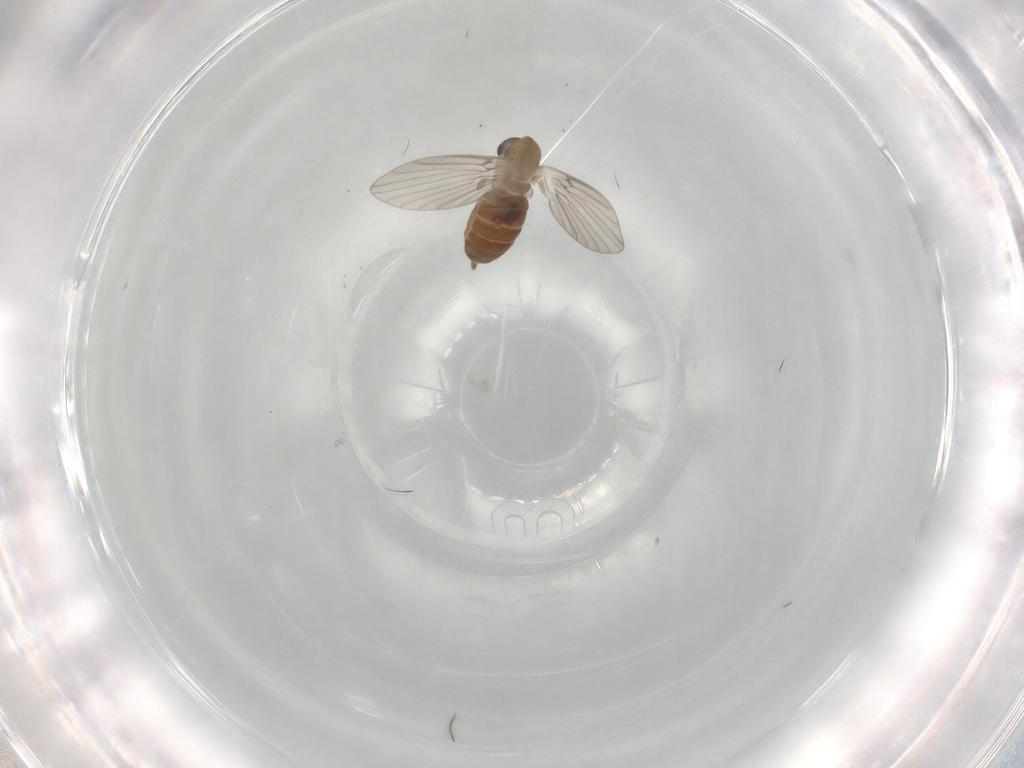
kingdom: Animalia
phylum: Arthropoda
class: Insecta
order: Diptera
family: Psychodidae
